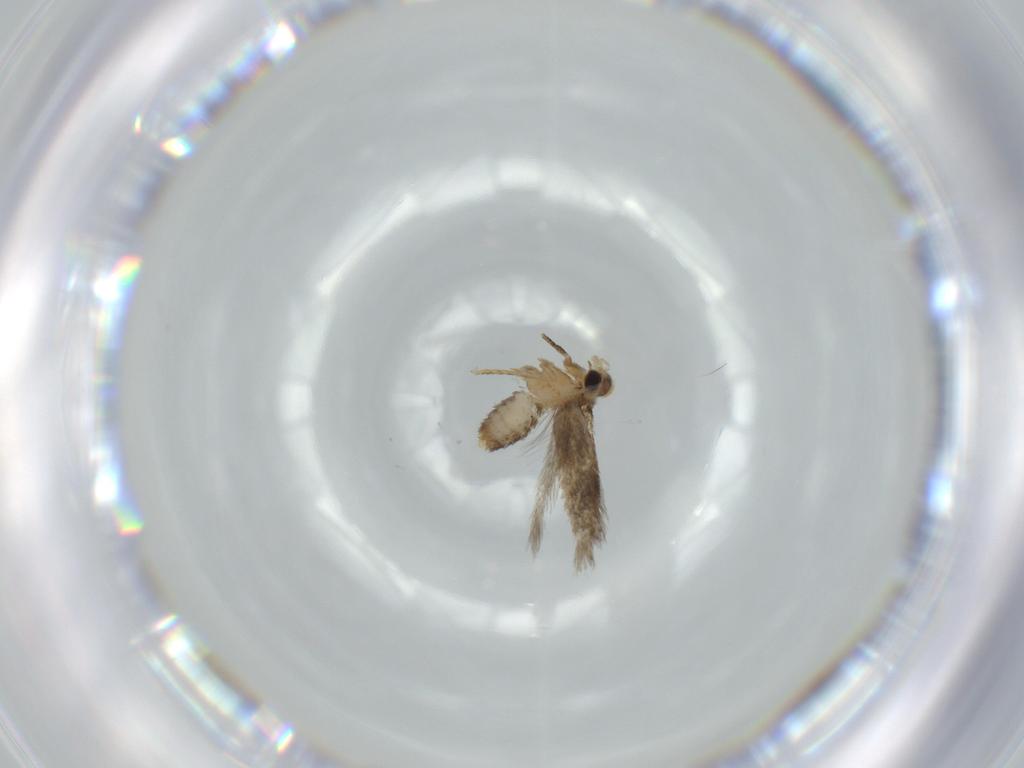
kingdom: Animalia
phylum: Arthropoda
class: Insecta
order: Lepidoptera
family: Nepticulidae
